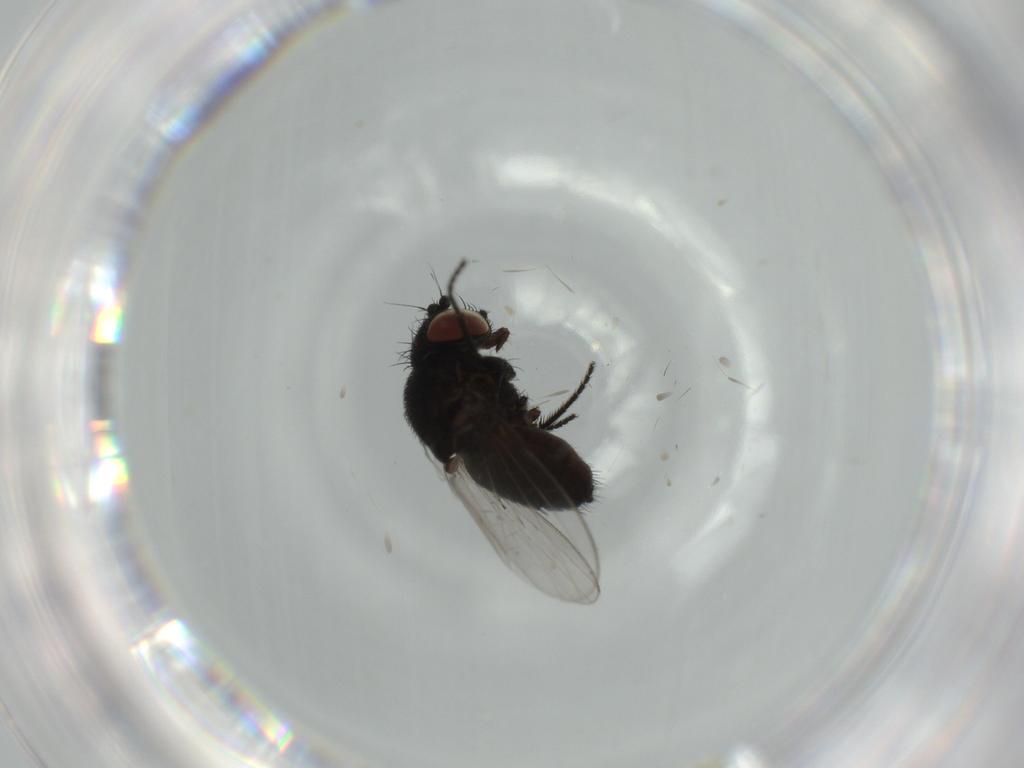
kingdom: Animalia
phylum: Arthropoda
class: Insecta
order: Diptera
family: Milichiidae
